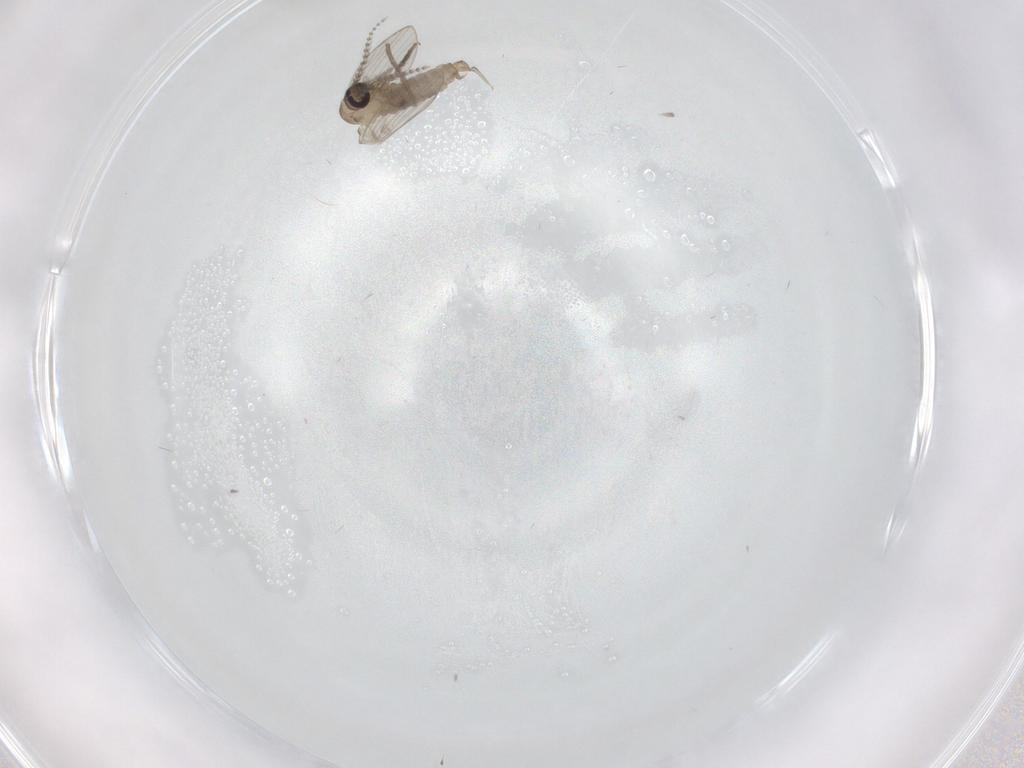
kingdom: Animalia
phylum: Arthropoda
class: Insecta
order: Diptera
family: Psychodidae
